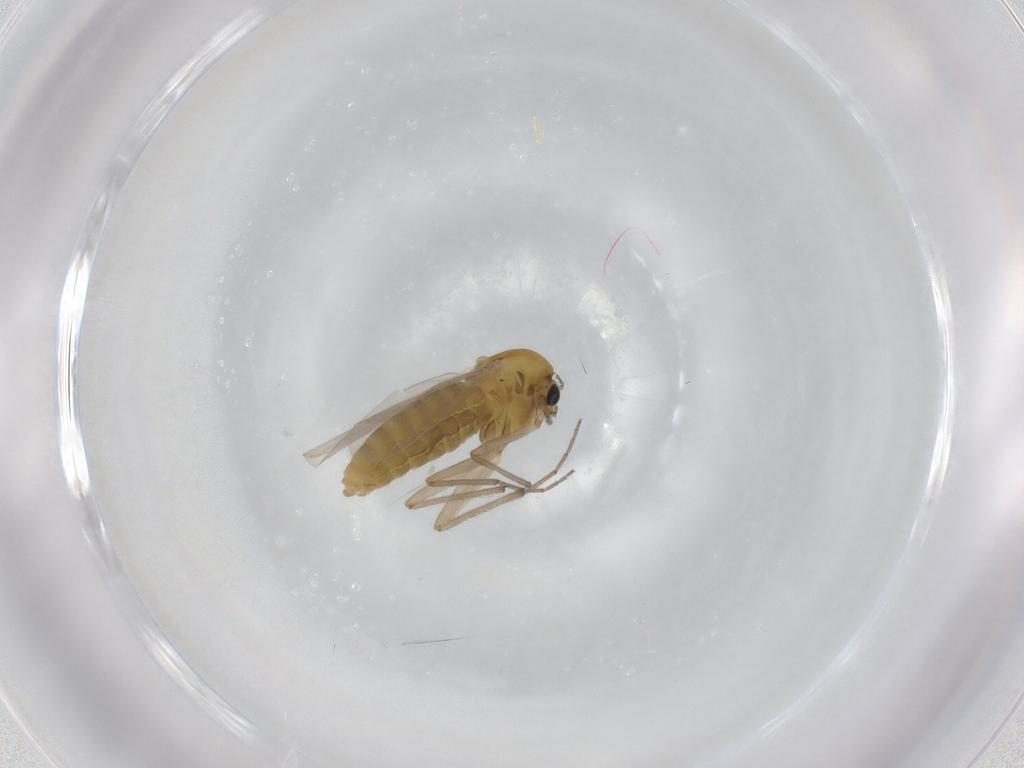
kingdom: Animalia
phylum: Arthropoda
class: Insecta
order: Diptera
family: Chironomidae
